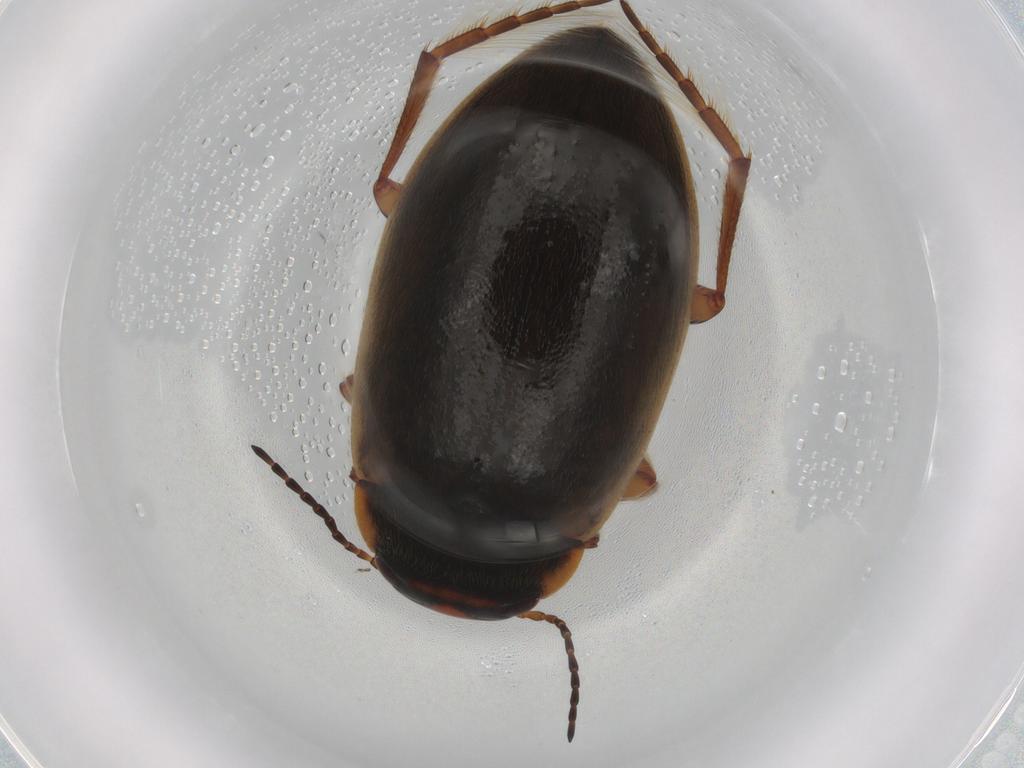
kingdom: Animalia
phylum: Arthropoda
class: Insecta
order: Coleoptera
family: Dytiscidae
